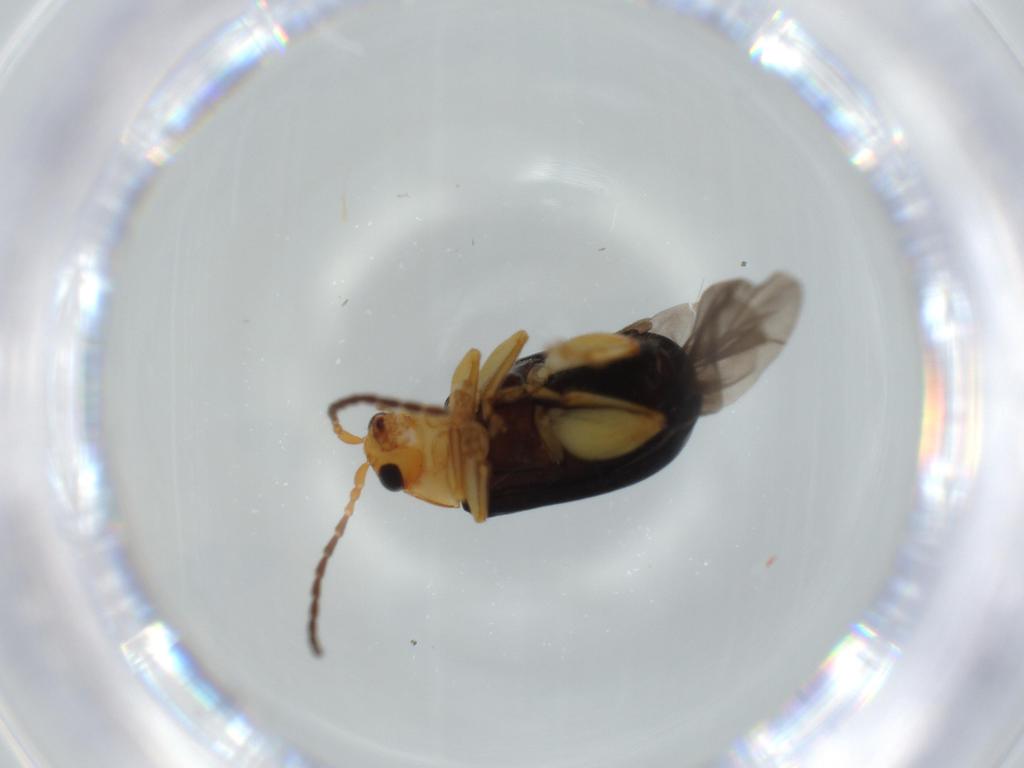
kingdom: Animalia
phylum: Arthropoda
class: Insecta
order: Coleoptera
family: Chrysomelidae
